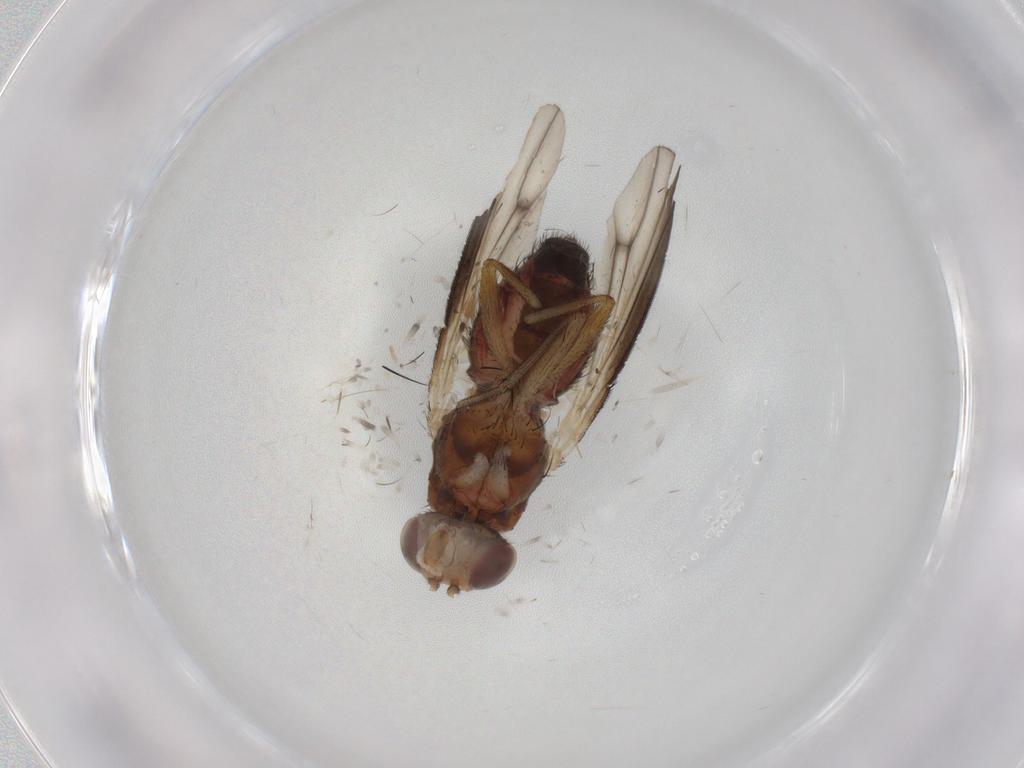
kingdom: Animalia
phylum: Arthropoda
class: Insecta
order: Diptera
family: Heleomyzidae
